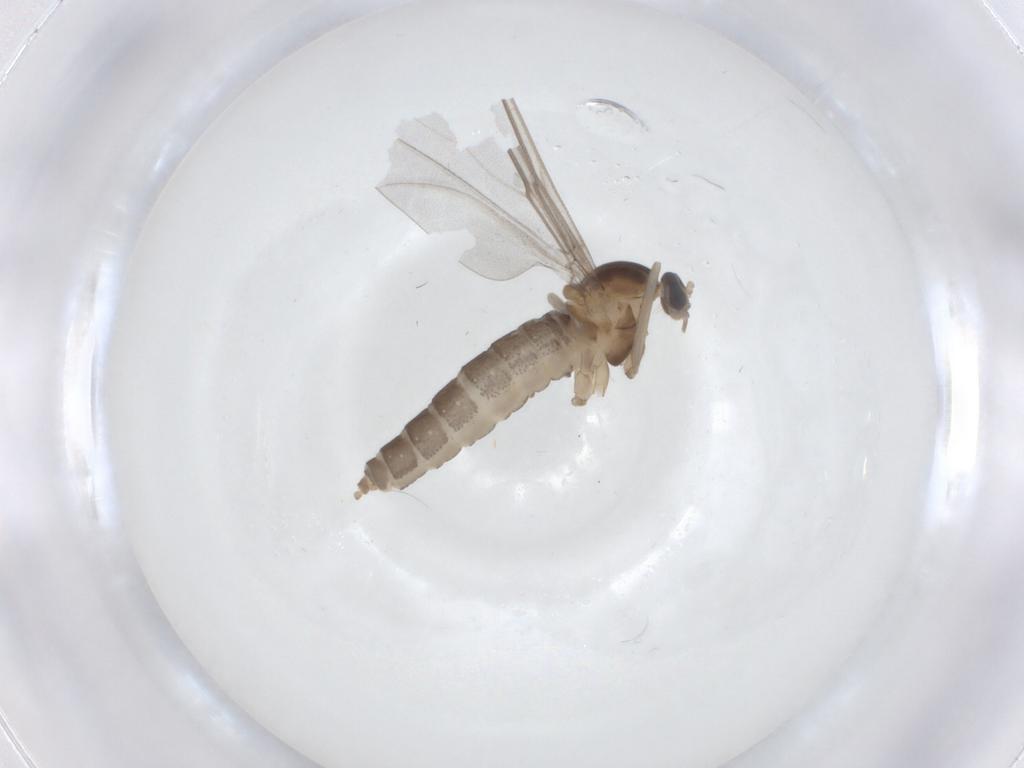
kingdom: Animalia
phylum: Arthropoda
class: Insecta
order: Diptera
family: Cecidomyiidae
